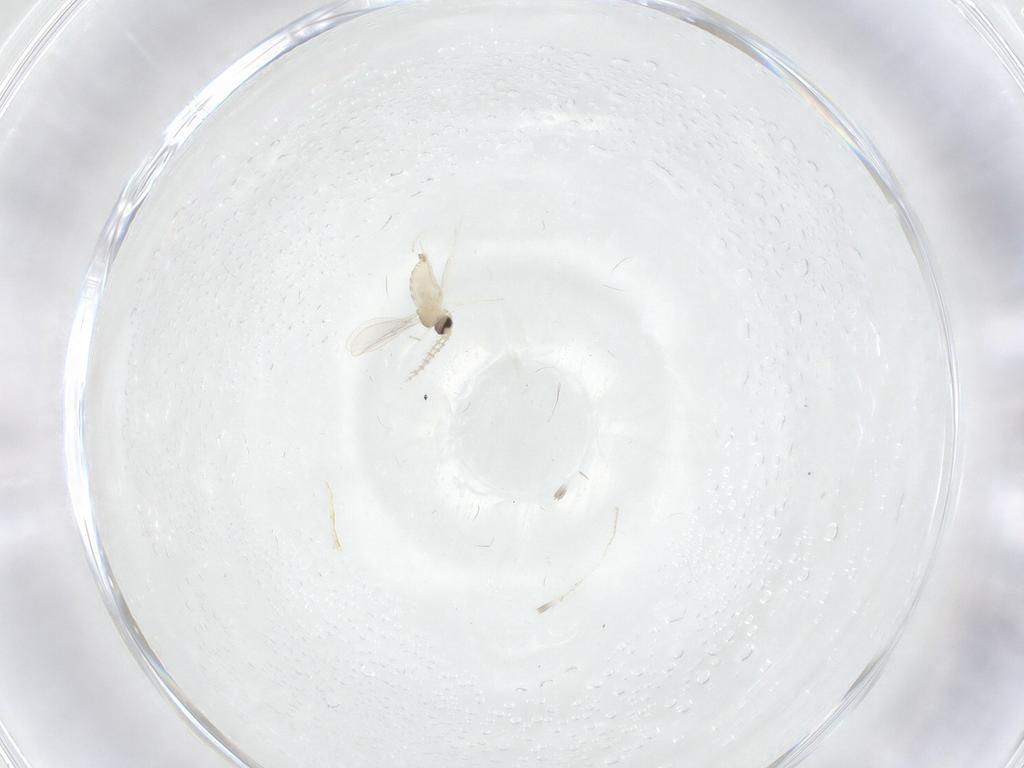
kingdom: Animalia
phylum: Arthropoda
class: Insecta
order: Diptera
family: Cecidomyiidae
